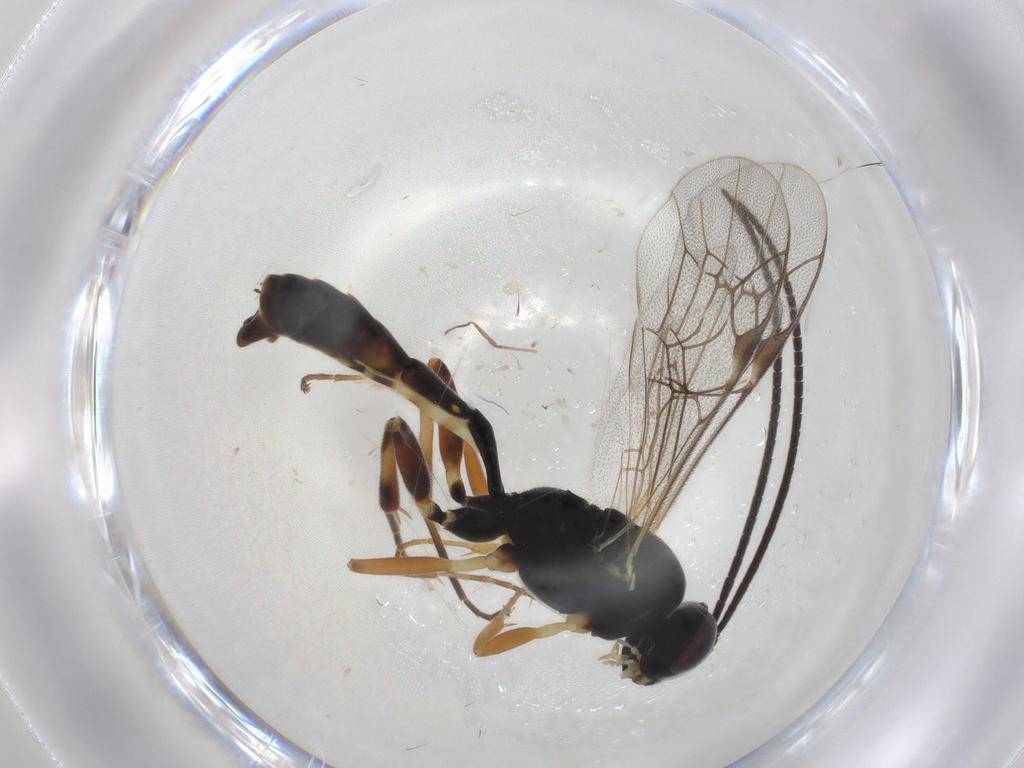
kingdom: Animalia
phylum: Arthropoda
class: Insecta
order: Hymenoptera
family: Ichneumonidae
